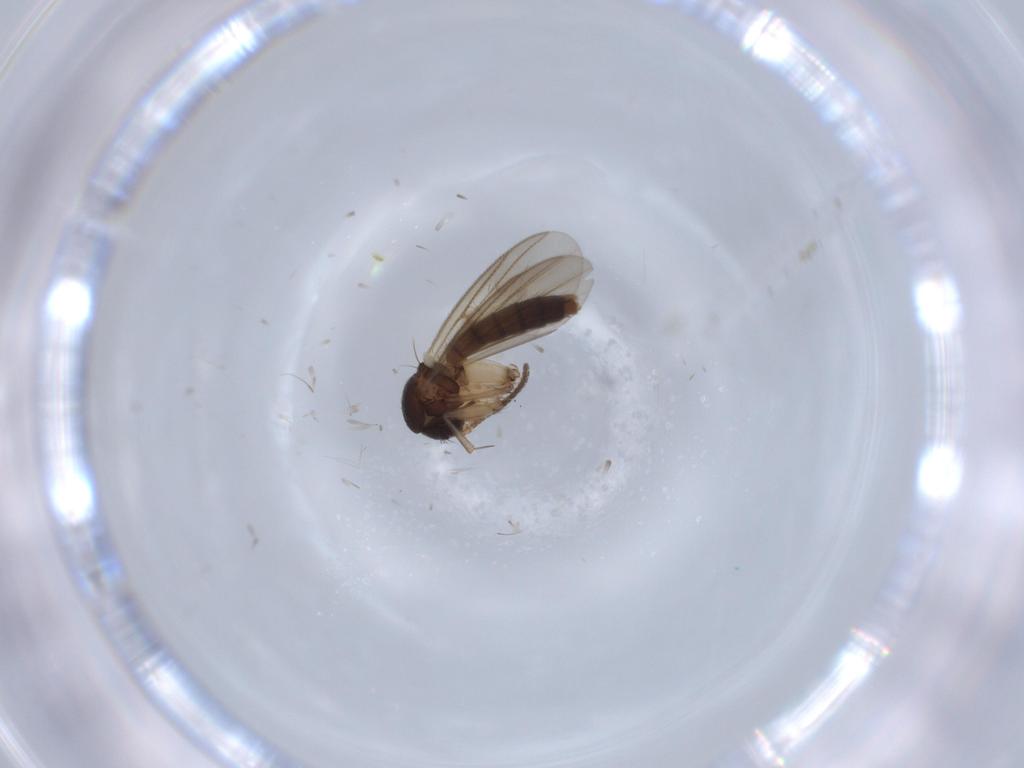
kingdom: Animalia
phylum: Arthropoda
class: Insecta
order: Diptera
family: Mycetophilidae
